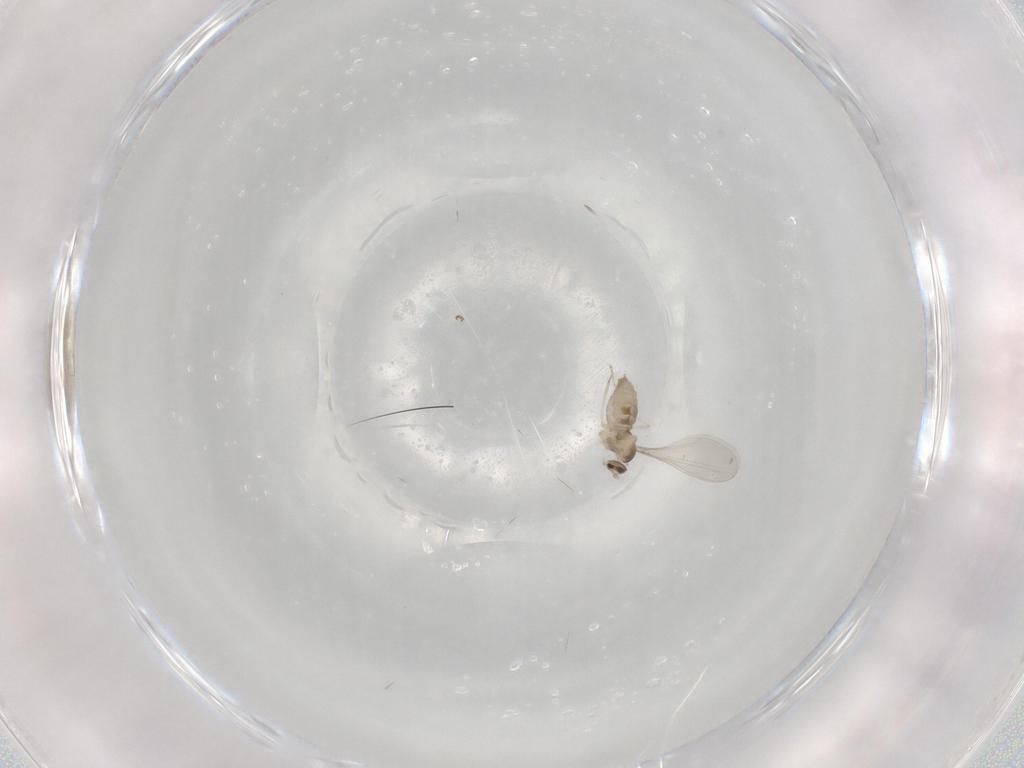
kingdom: Animalia
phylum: Arthropoda
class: Insecta
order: Diptera
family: Cecidomyiidae
